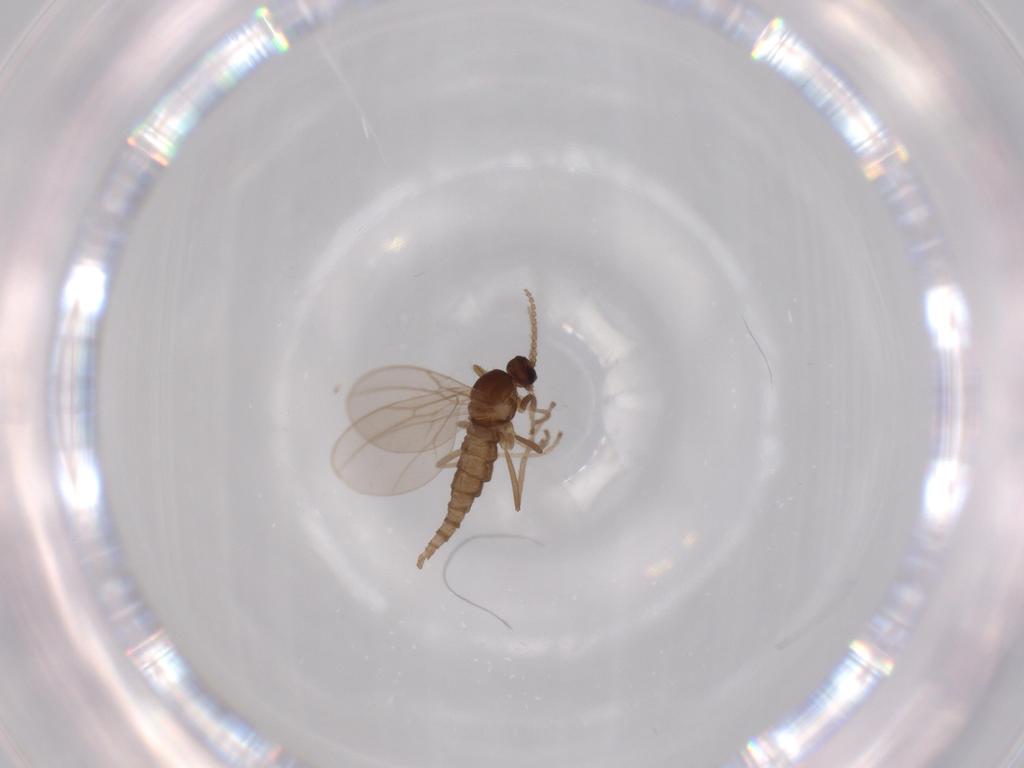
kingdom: Animalia
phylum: Arthropoda
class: Insecta
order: Diptera
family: Cecidomyiidae
